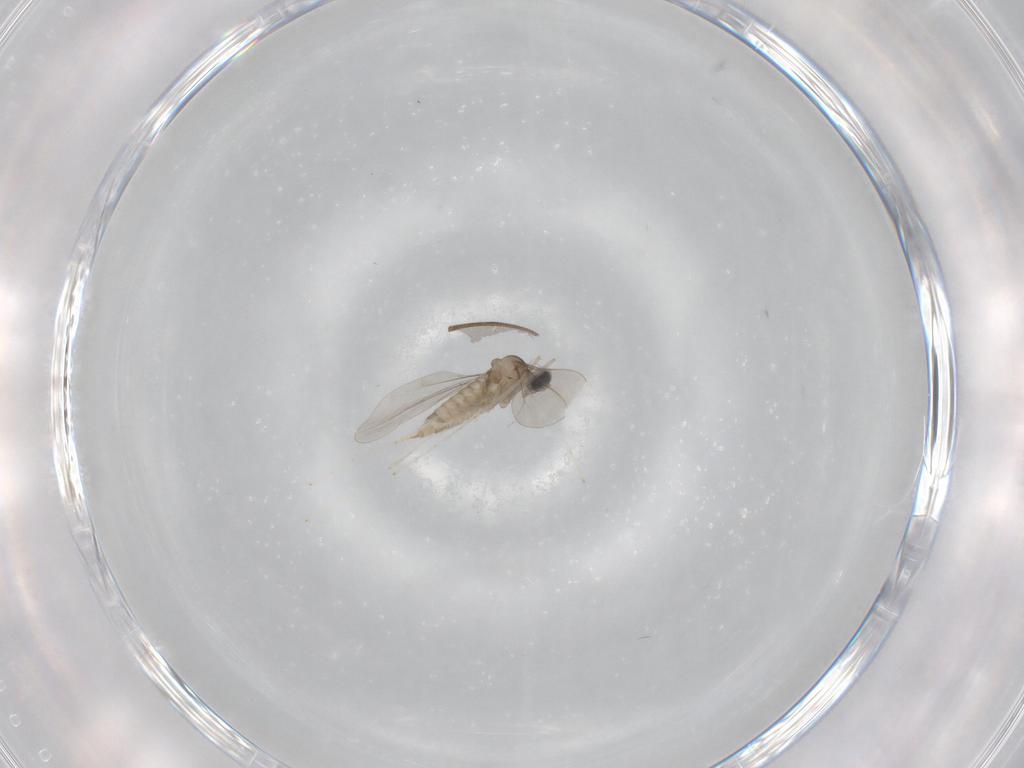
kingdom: Animalia
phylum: Arthropoda
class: Insecta
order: Diptera
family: Cecidomyiidae
